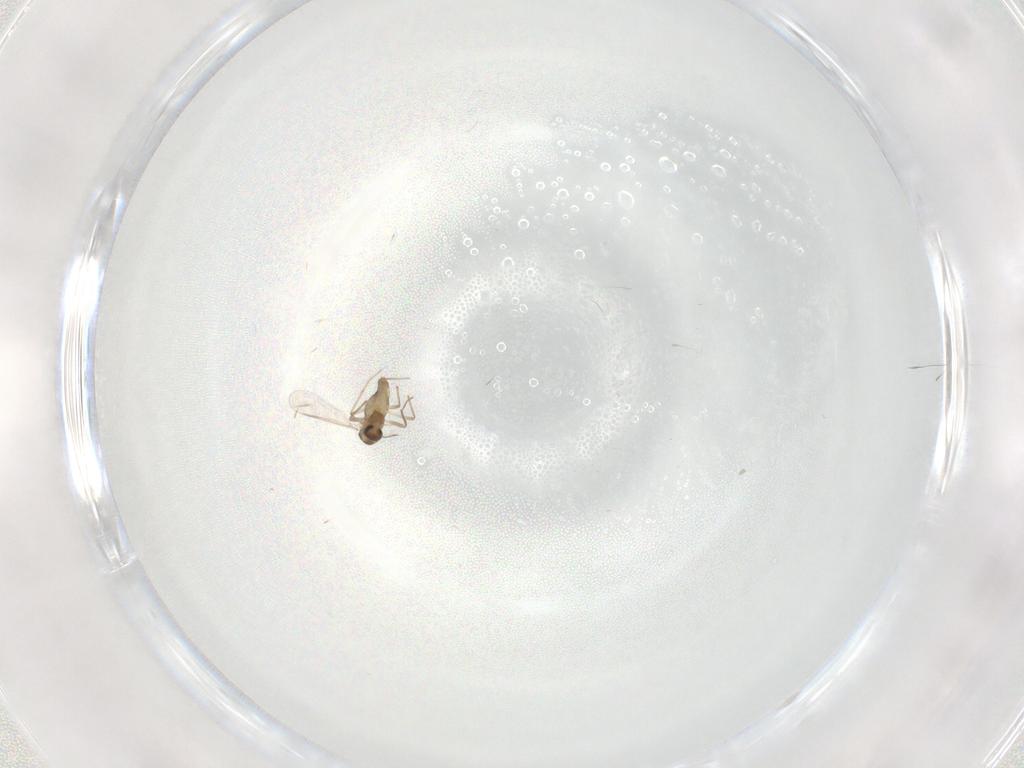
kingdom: Animalia
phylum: Arthropoda
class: Insecta
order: Diptera
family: Chironomidae
